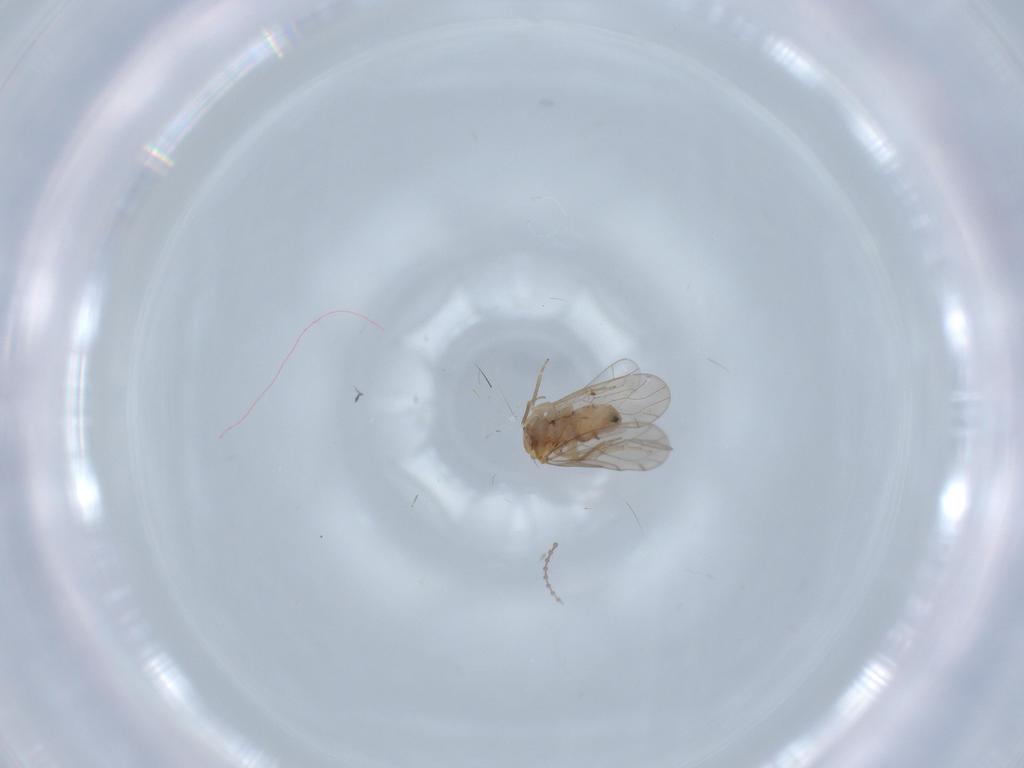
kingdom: Animalia
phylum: Arthropoda
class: Insecta
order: Psocodea
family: Ectopsocidae
